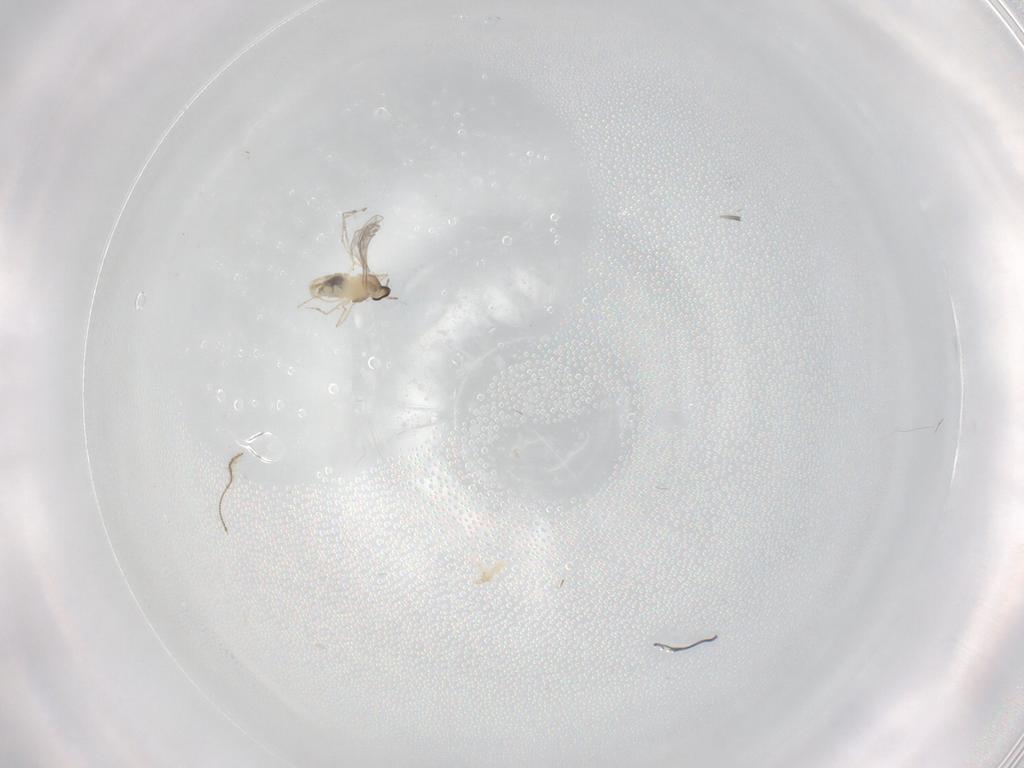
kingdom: Animalia
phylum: Arthropoda
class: Insecta
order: Diptera
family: Cecidomyiidae
